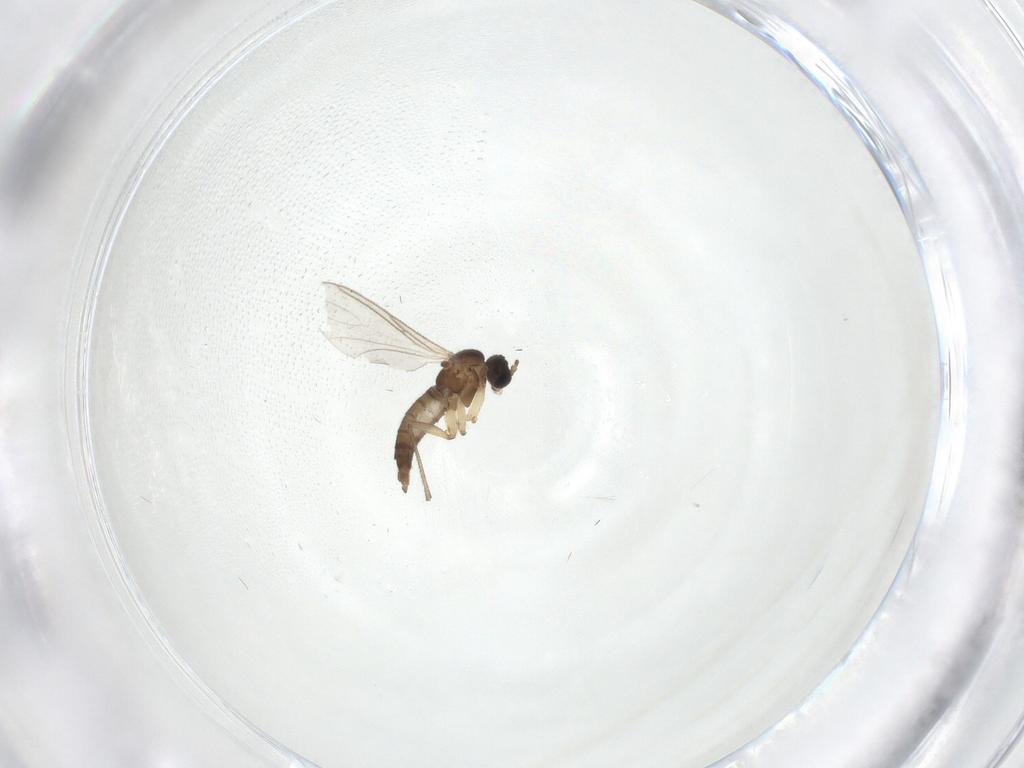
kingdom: Animalia
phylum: Arthropoda
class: Insecta
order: Diptera
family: Sciaridae
